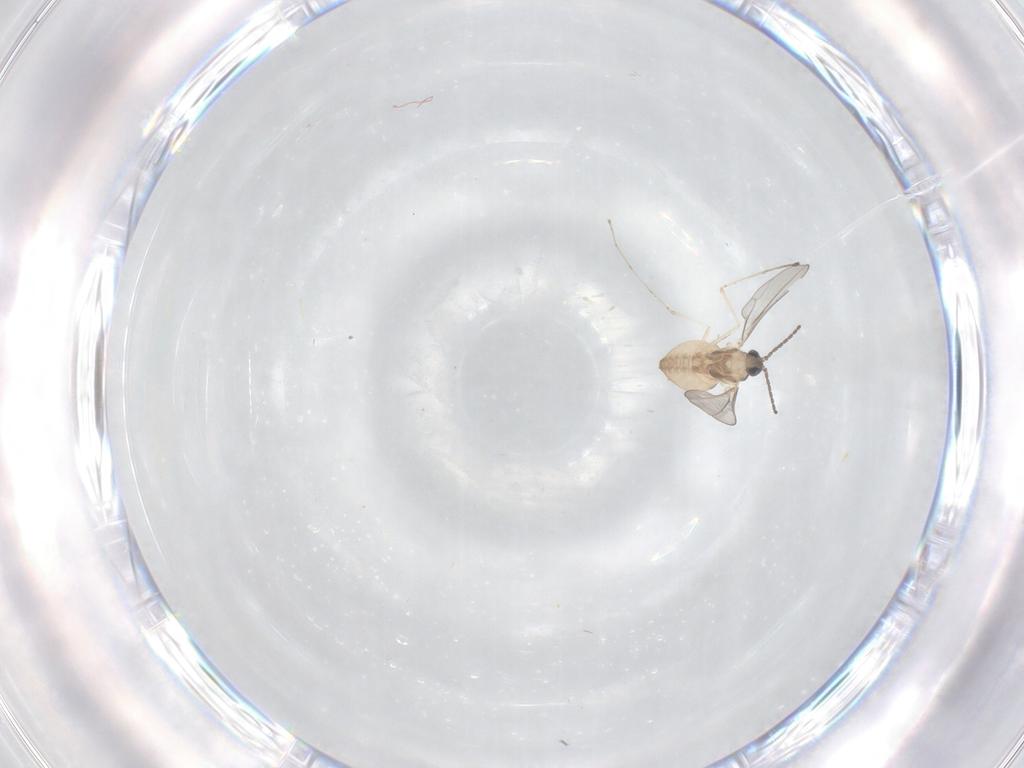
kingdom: Animalia
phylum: Arthropoda
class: Insecta
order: Diptera
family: Cecidomyiidae
